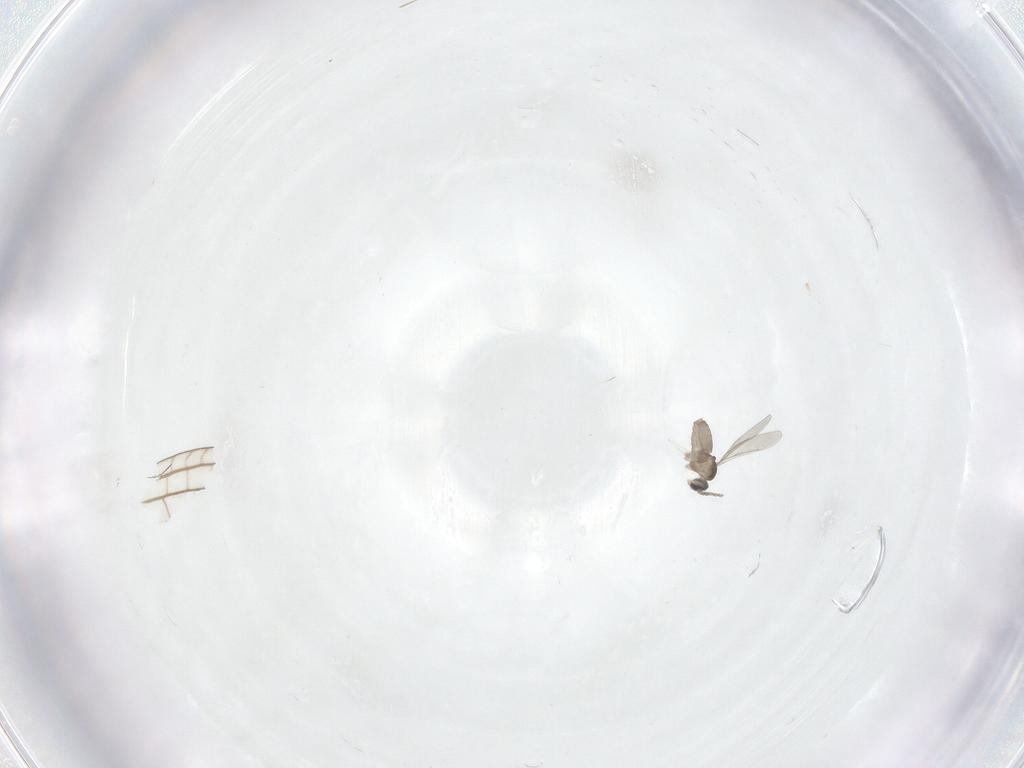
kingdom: Animalia
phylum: Arthropoda
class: Insecta
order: Diptera
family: Cecidomyiidae
